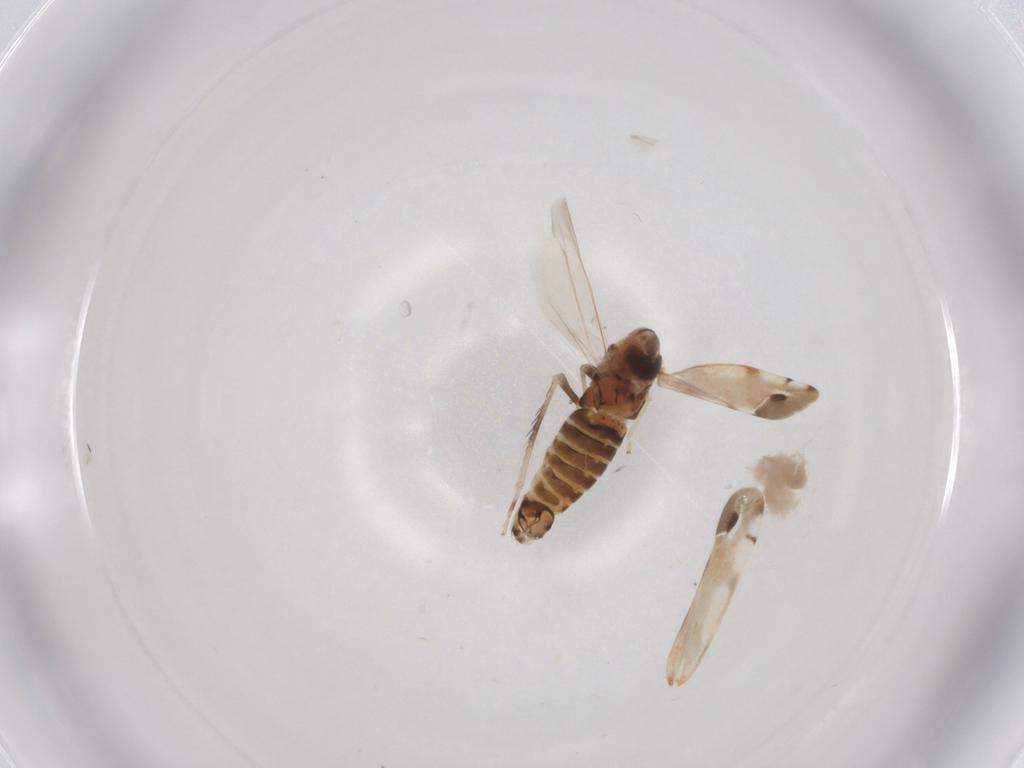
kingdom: Animalia
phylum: Arthropoda
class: Insecta
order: Hemiptera
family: Cicadellidae
